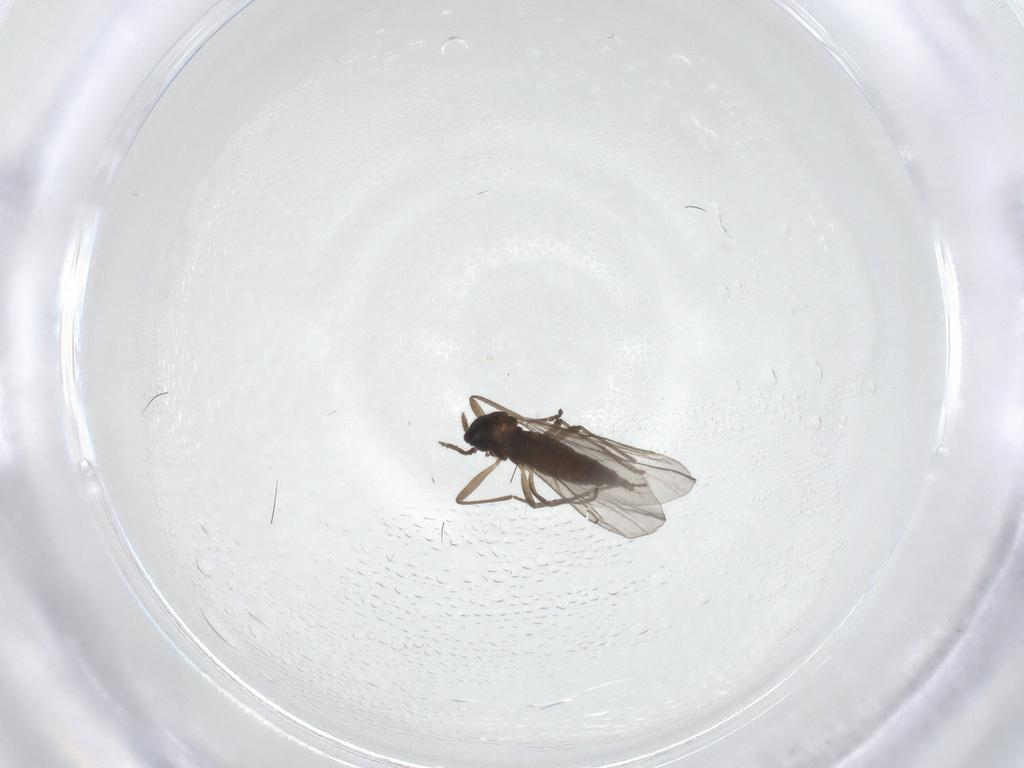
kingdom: Animalia
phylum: Arthropoda
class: Insecta
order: Diptera
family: Cecidomyiidae
